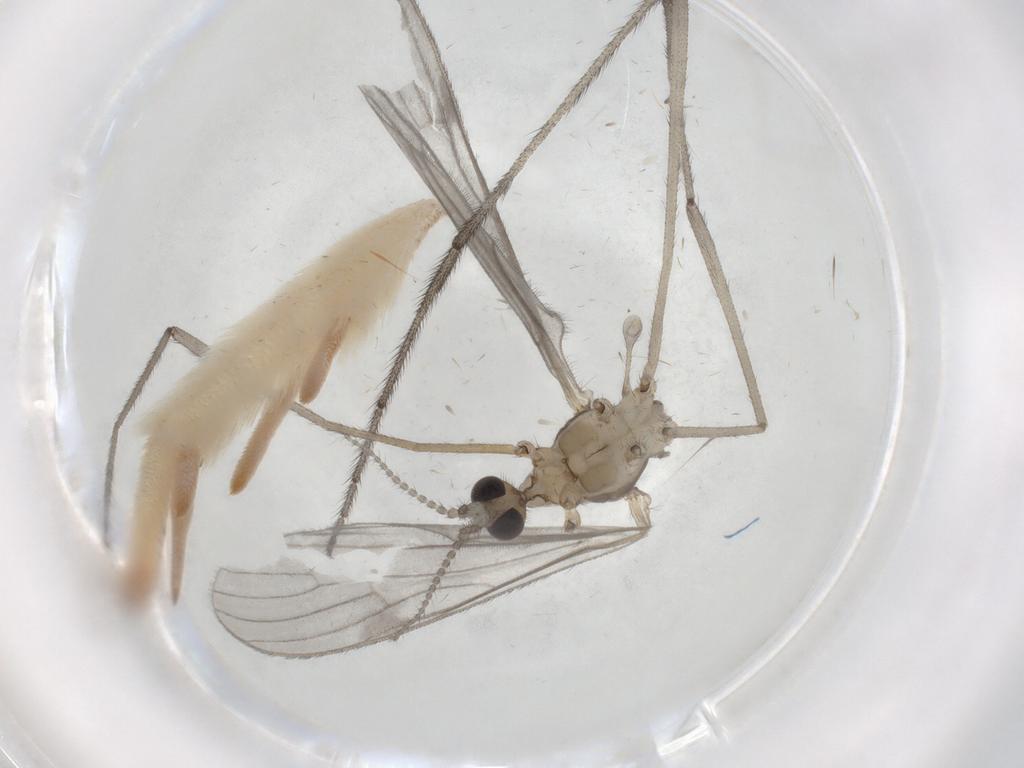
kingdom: Animalia
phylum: Arthropoda
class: Insecta
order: Diptera
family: Limoniidae
